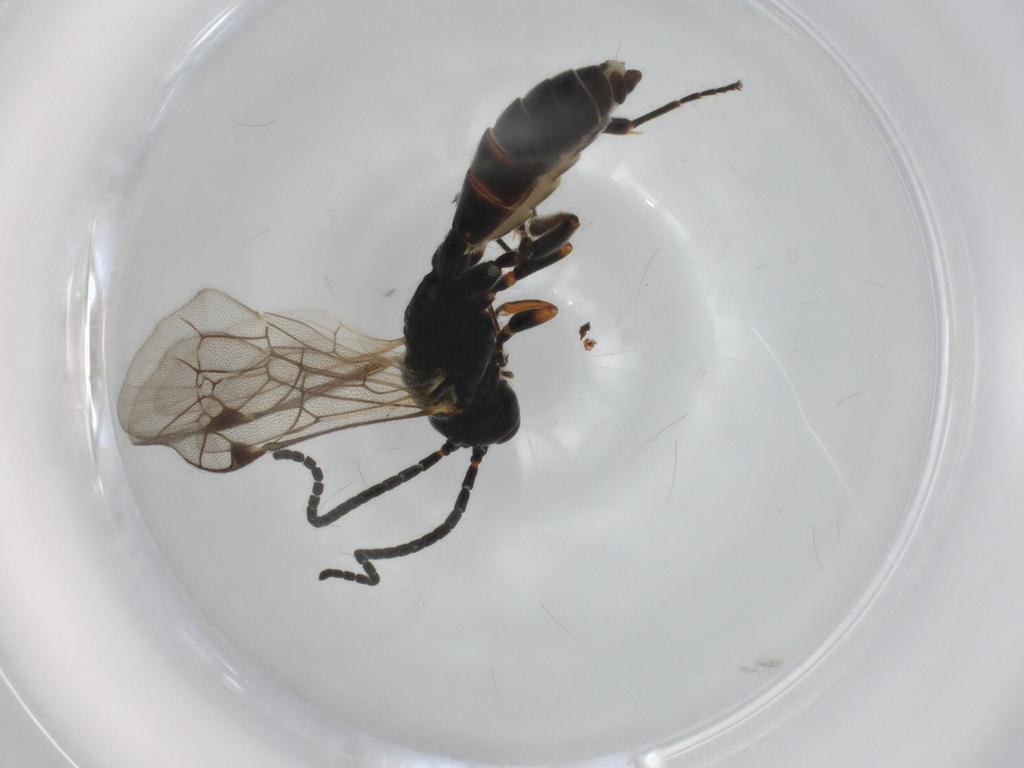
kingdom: Animalia
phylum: Arthropoda
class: Insecta
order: Hymenoptera
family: Ichneumonidae
